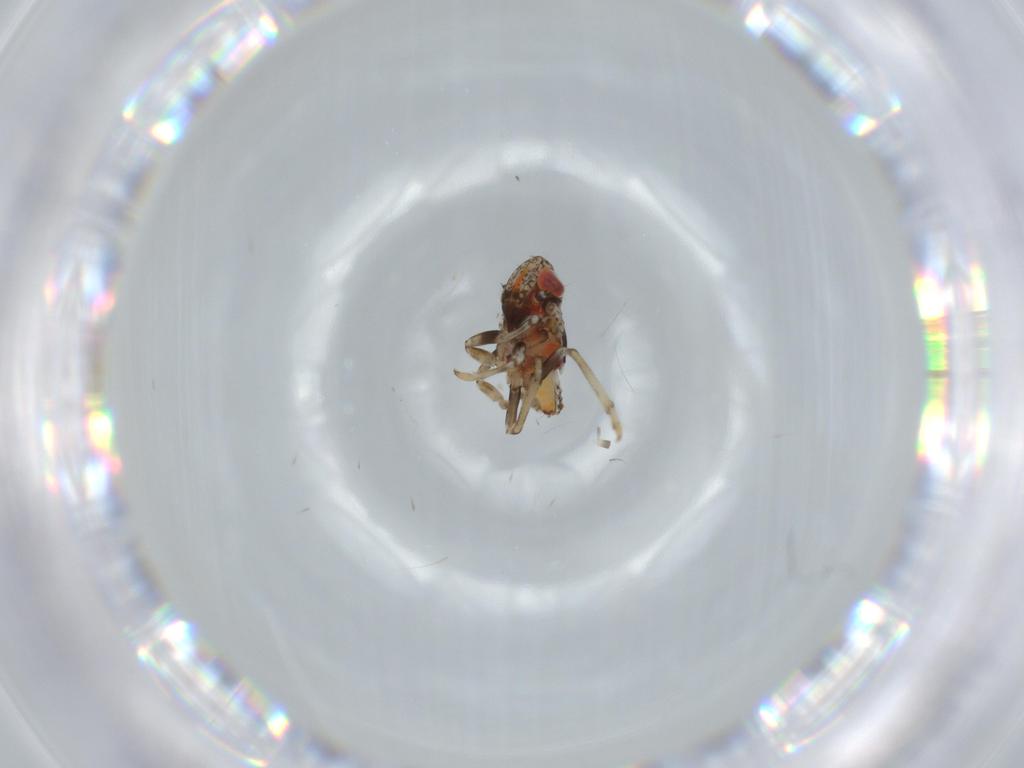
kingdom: Animalia
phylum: Arthropoda
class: Insecta
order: Hemiptera
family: Issidae
